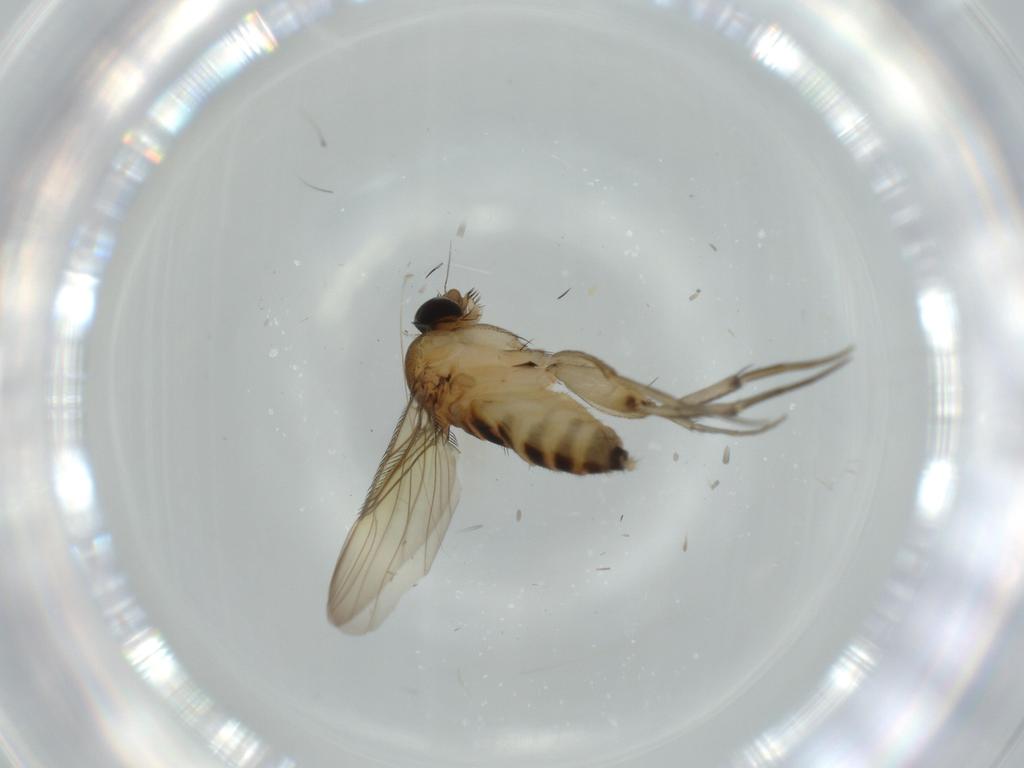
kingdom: Animalia
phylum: Arthropoda
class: Insecta
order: Diptera
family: Phoridae
